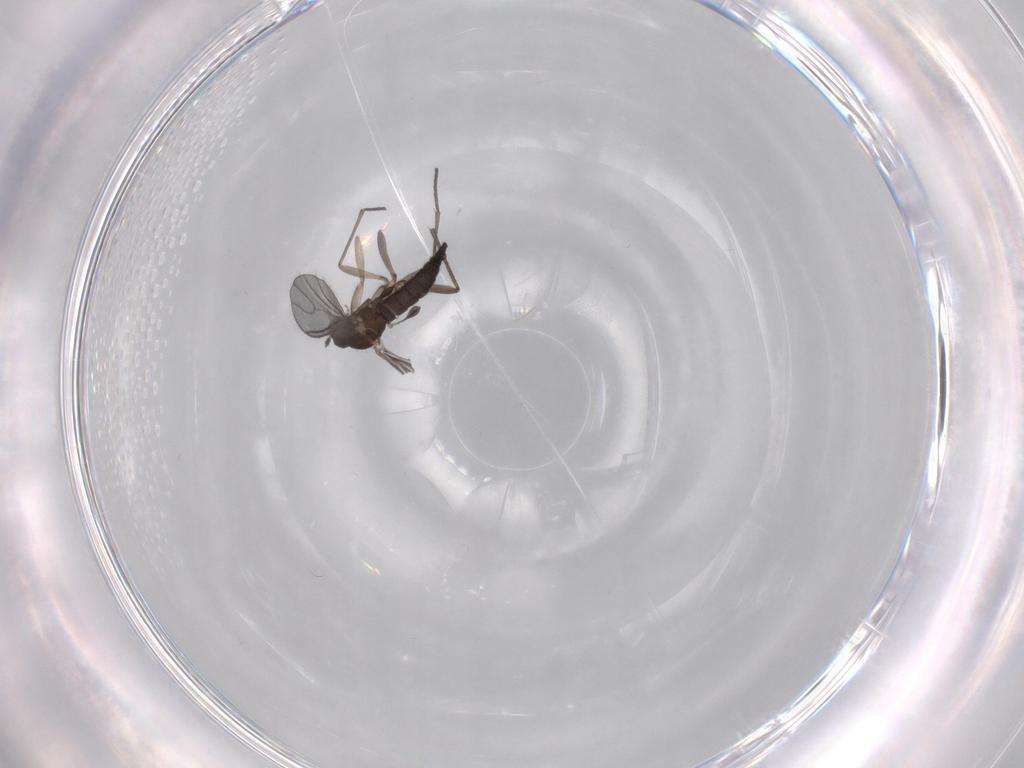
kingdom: Animalia
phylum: Arthropoda
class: Insecta
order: Diptera
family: Sciaridae
